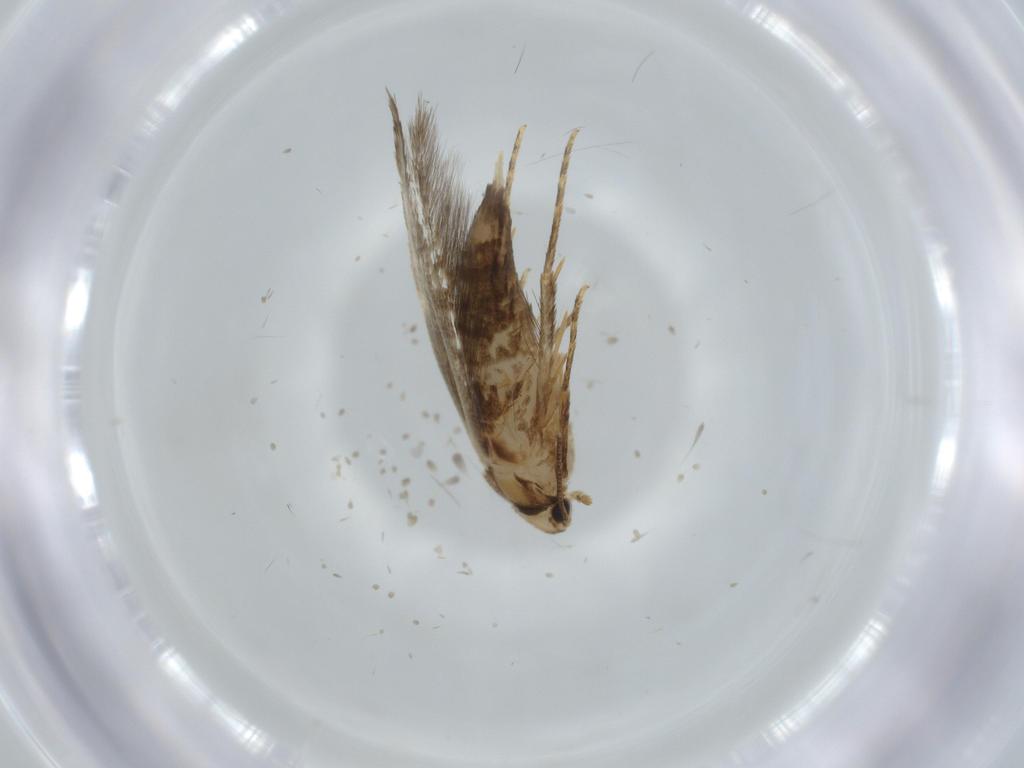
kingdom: Animalia
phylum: Arthropoda
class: Insecta
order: Lepidoptera
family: Tineidae
